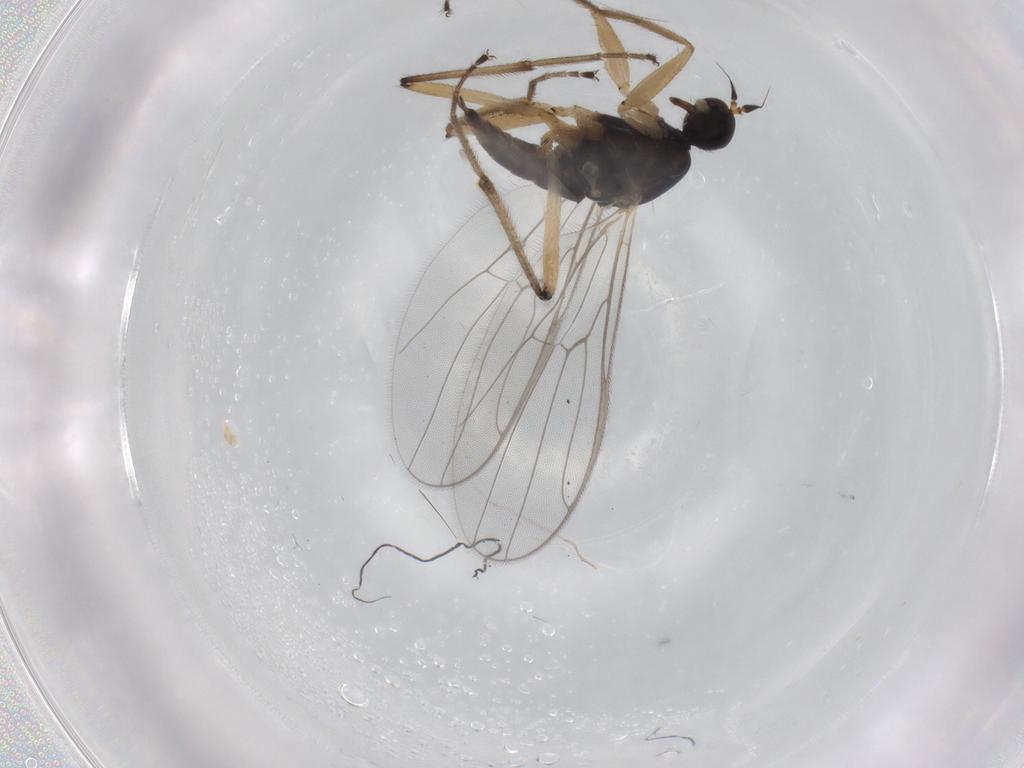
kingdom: Animalia
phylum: Arthropoda
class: Insecta
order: Diptera
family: Hybotidae
